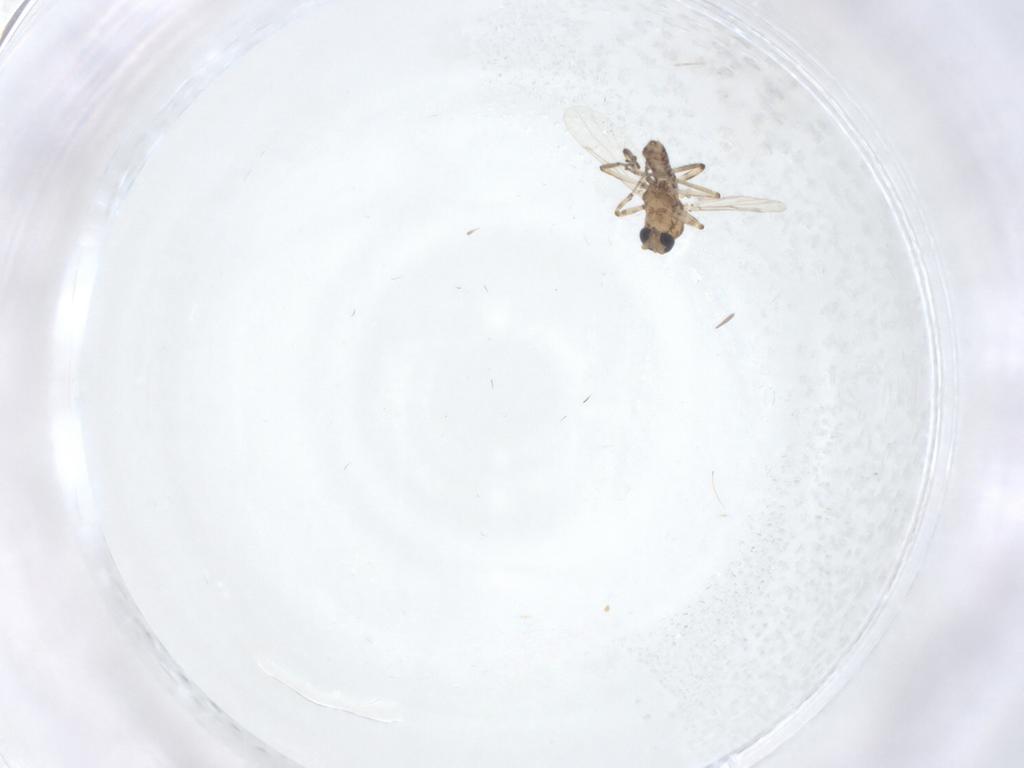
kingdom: Animalia
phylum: Arthropoda
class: Insecta
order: Diptera
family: Ceratopogonidae
